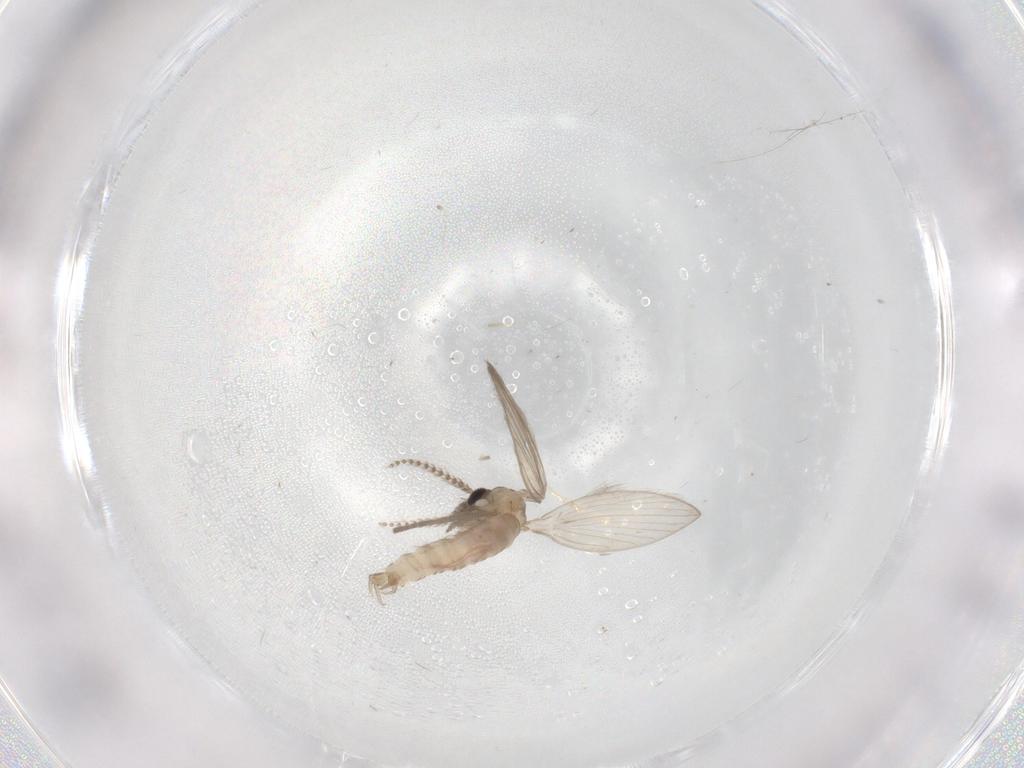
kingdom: Animalia
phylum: Arthropoda
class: Insecta
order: Diptera
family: Psychodidae
